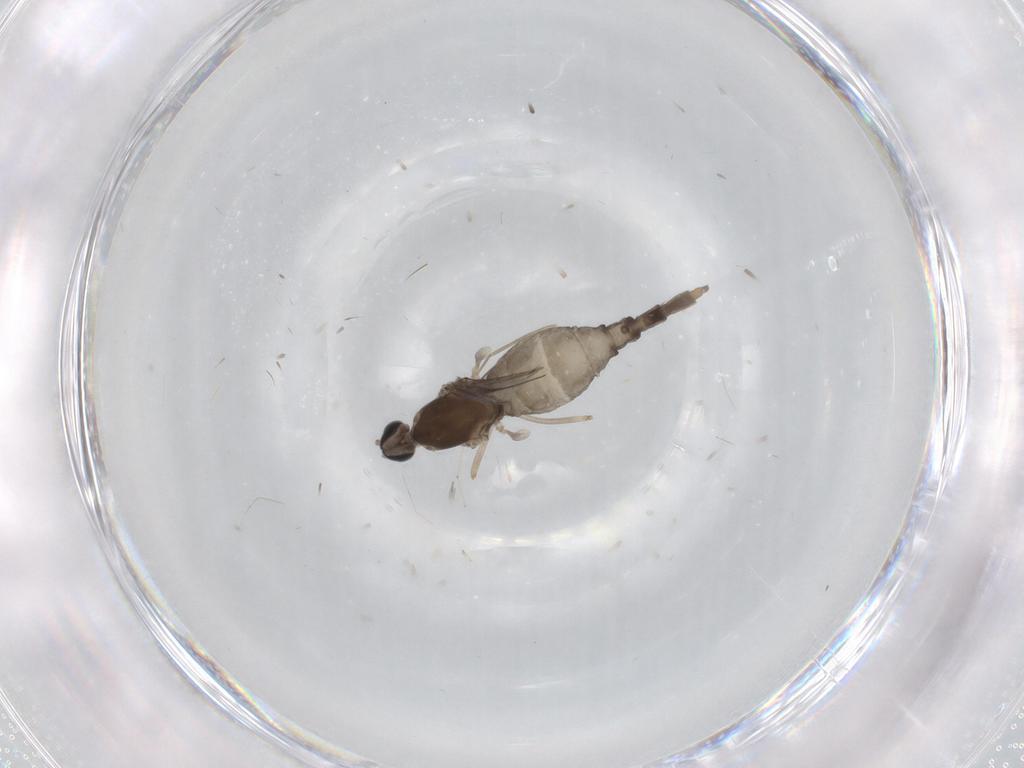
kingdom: Animalia
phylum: Arthropoda
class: Insecta
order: Diptera
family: Cecidomyiidae
